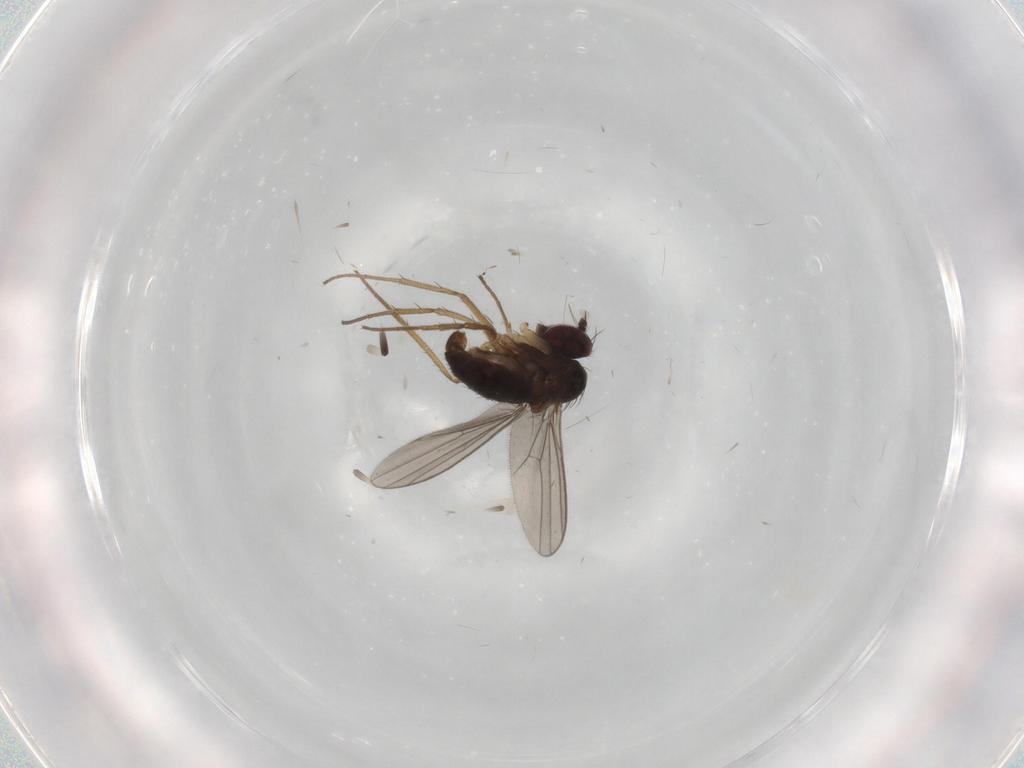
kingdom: Animalia
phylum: Arthropoda
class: Insecta
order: Diptera
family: Dolichopodidae
